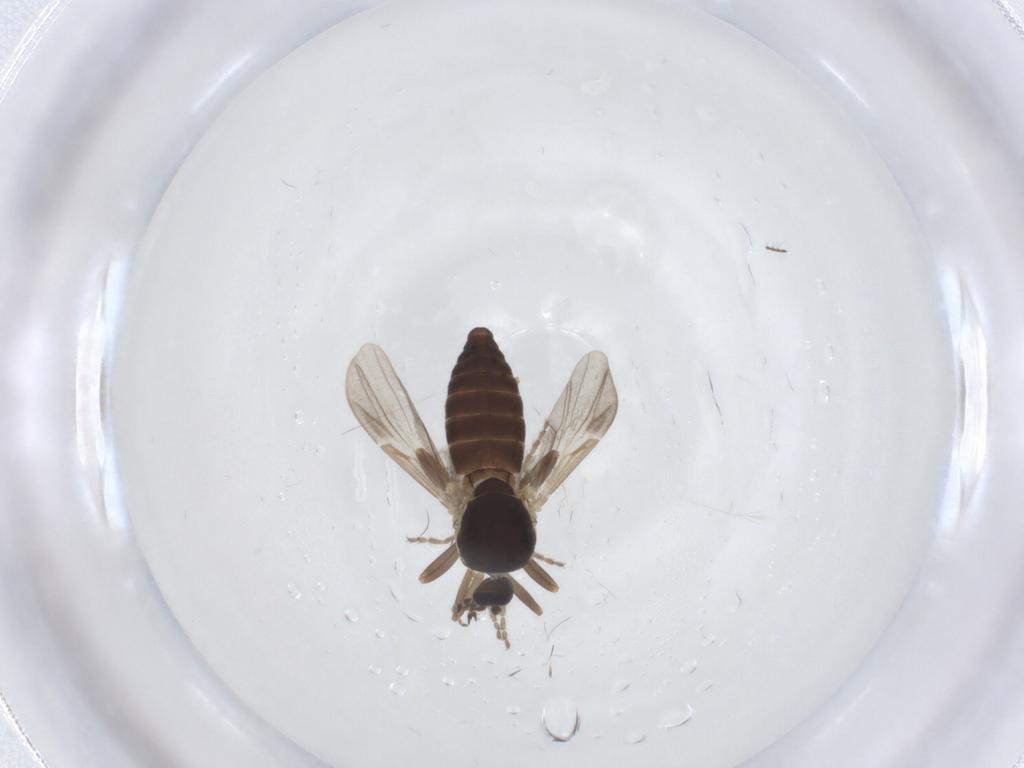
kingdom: Animalia
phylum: Arthropoda
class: Insecta
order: Diptera
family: Ceratopogonidae
